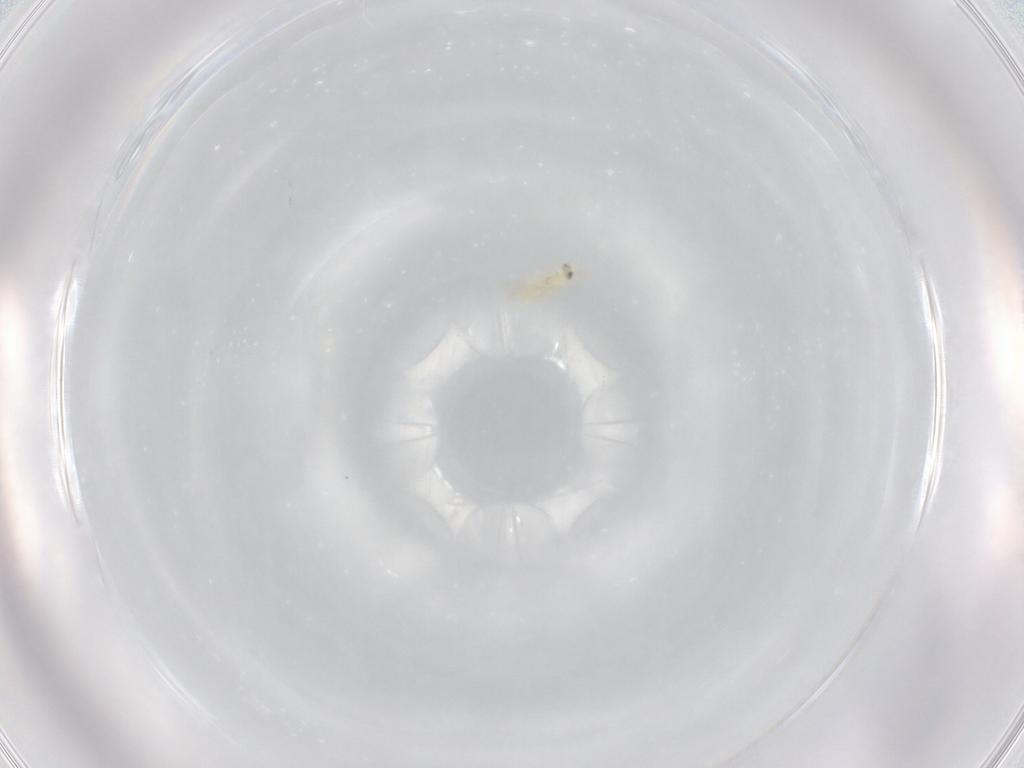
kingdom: Animalia
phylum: Arthropoda
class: Insecta
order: Hymenoptera
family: Aphelinidae
